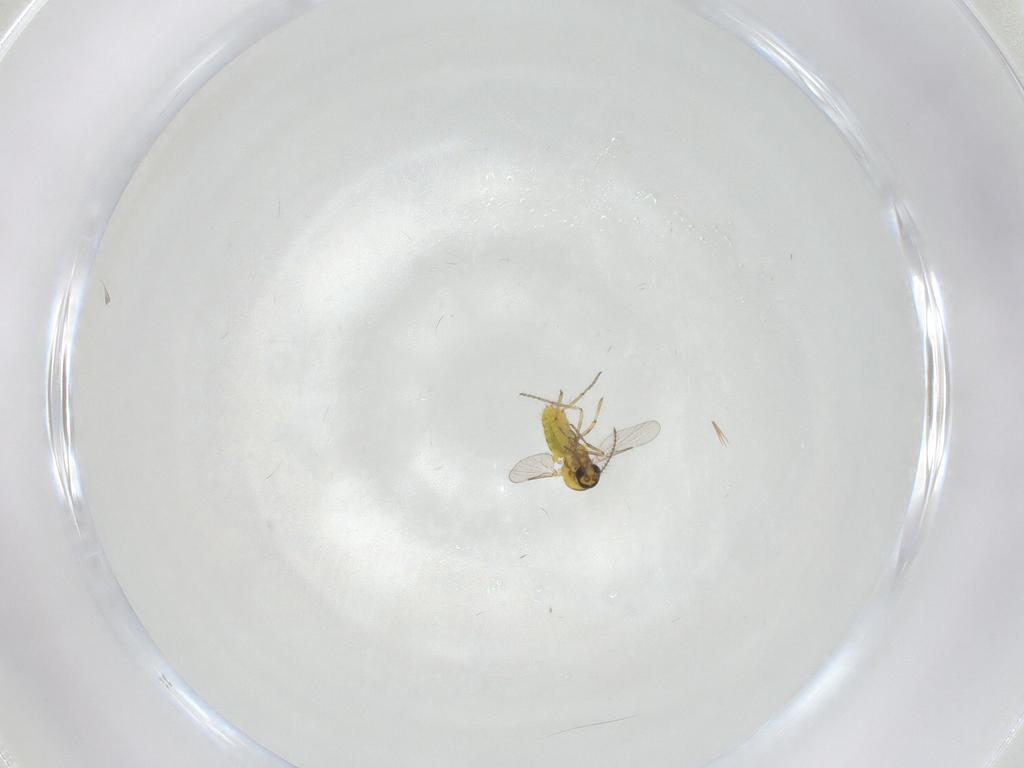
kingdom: Animalia
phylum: Arthropoda
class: Insecta
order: Diptera
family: Ceratopogonidae
